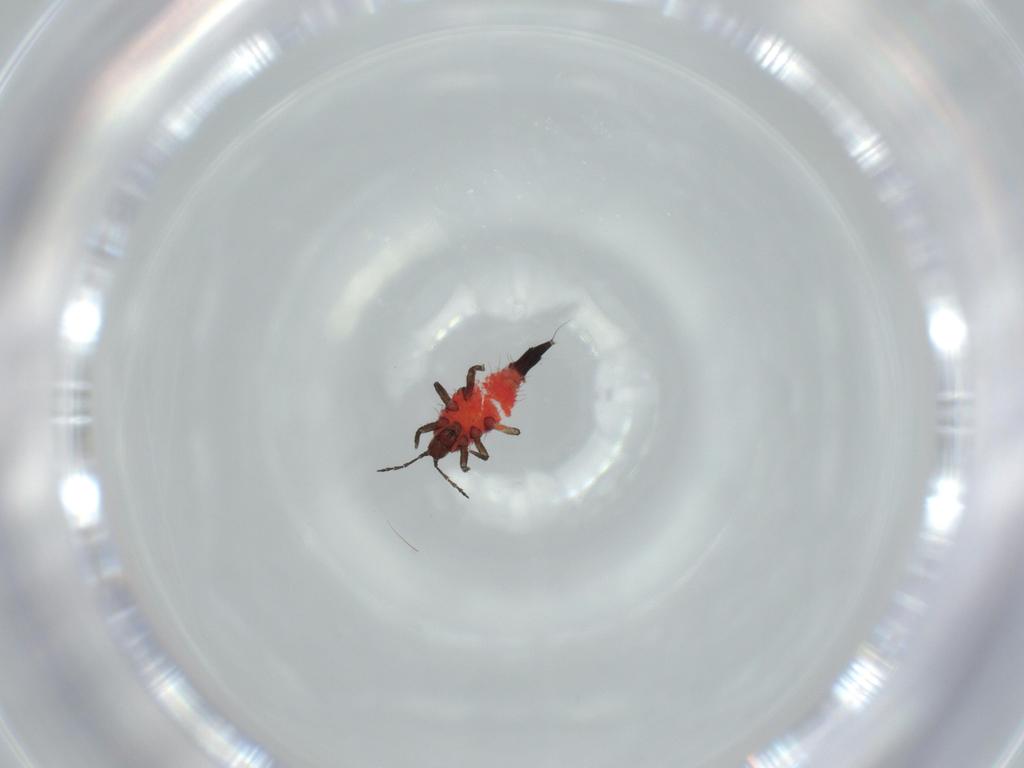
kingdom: Animalia
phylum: Arthropoda
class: Insecta
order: Thysanoptera
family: Phlaeothripidae
